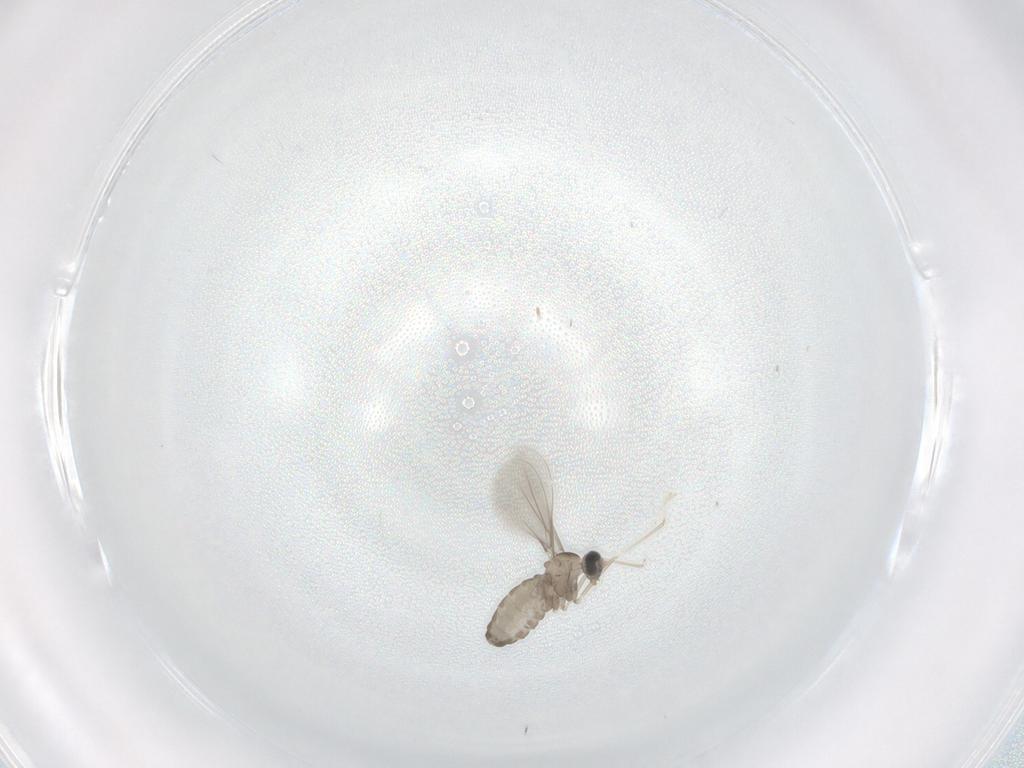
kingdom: Animalia
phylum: Arthropoda
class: Insecta
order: Diptera
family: Cecidomyiidae
